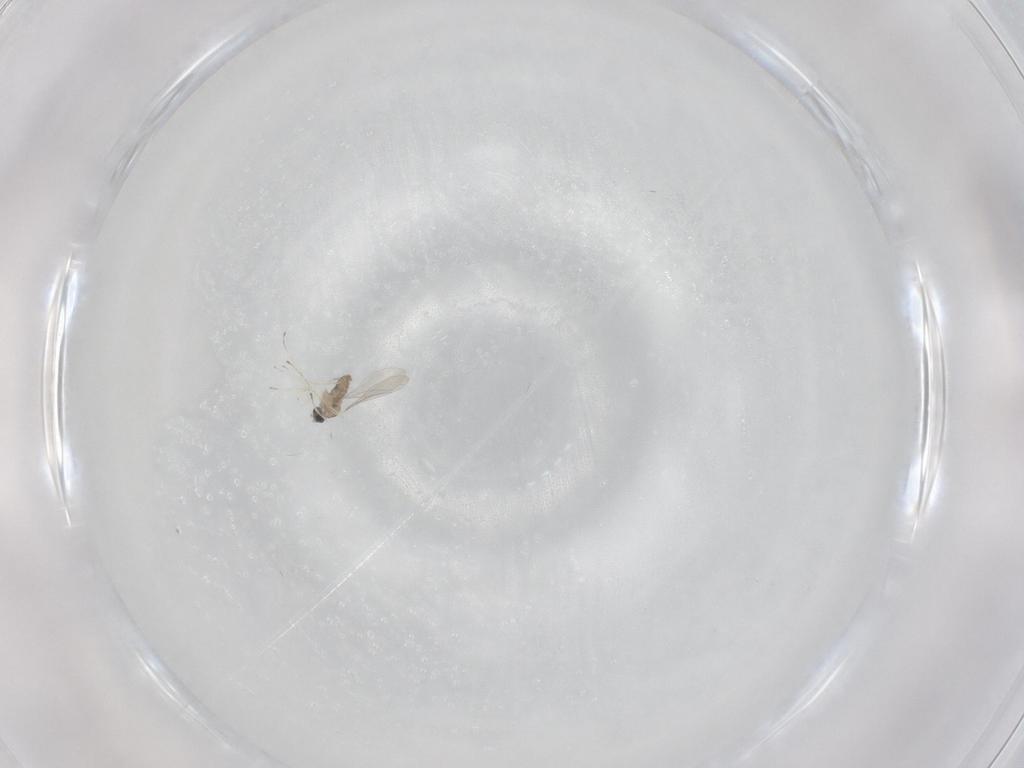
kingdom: Animalia
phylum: Arthropoda
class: Insecta
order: Diptera
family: Cecidomyiidae
